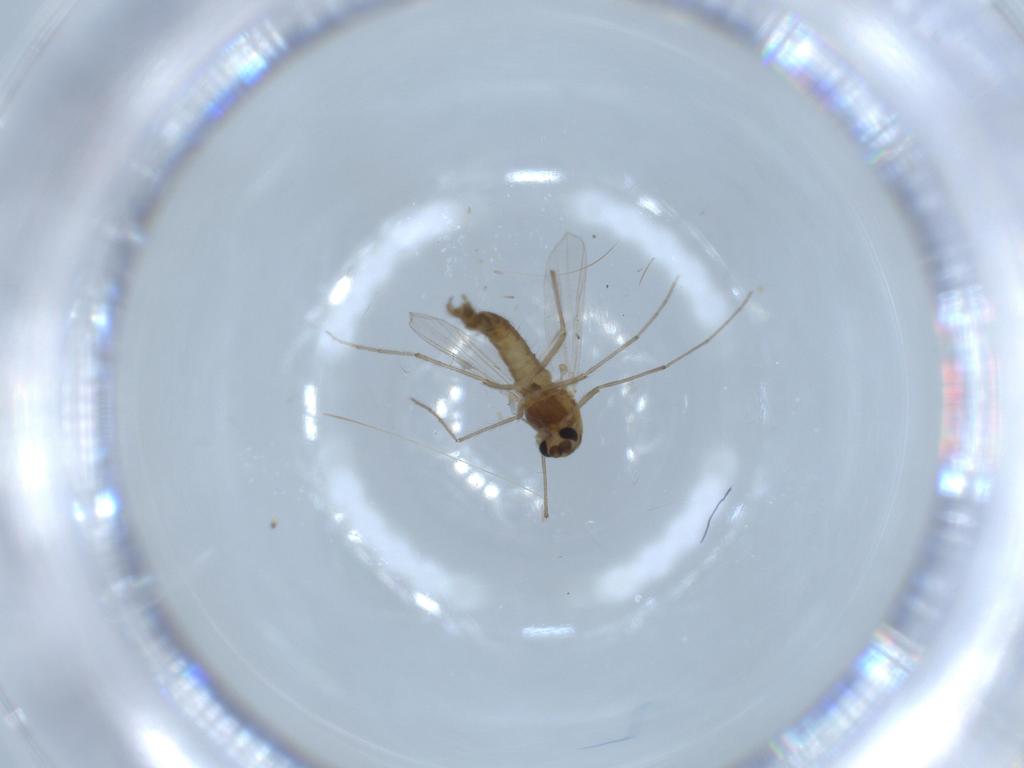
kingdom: Animalia
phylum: Arthropoda
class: Insecta
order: Diptera
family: Chironomidae
